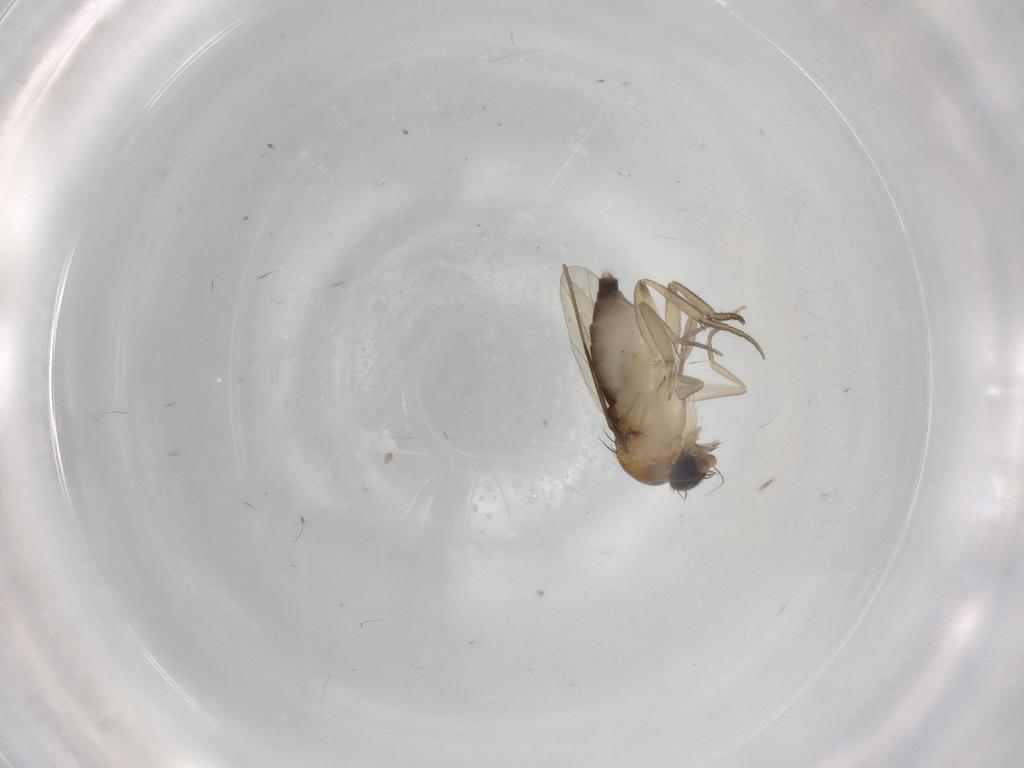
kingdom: Animalia
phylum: Arthropoda
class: Insecta
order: Diptera
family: Phoridae
